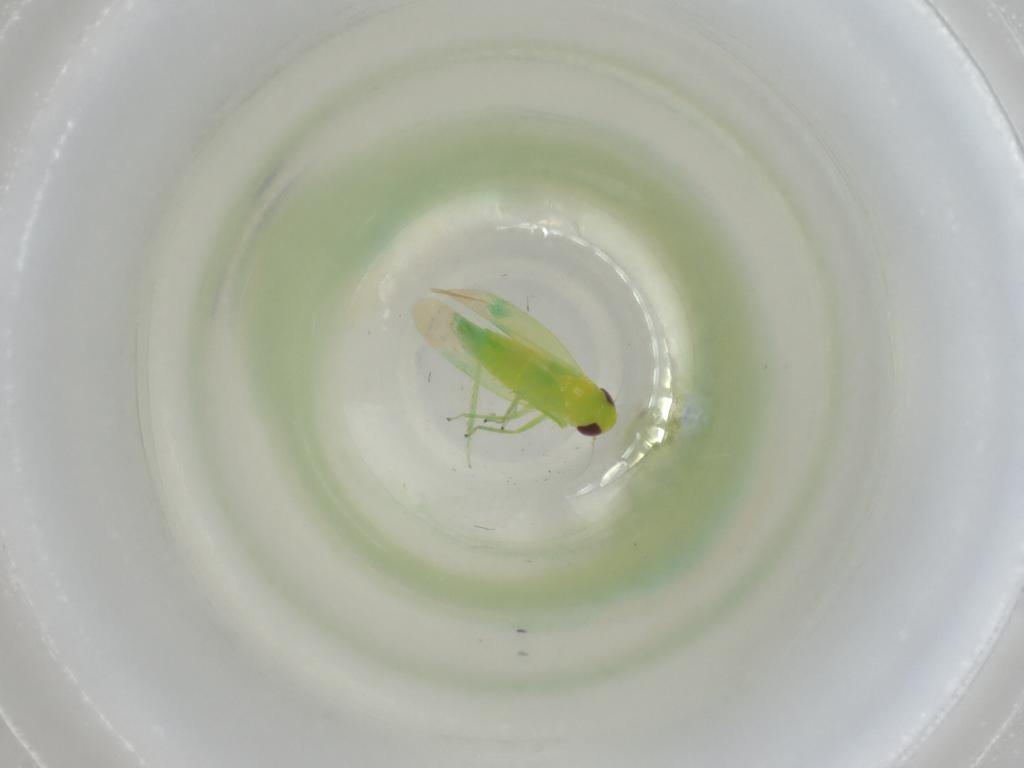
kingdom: Animalia
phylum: Arthropoda
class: Insecta
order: Hemiptera
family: Cicadellidae
